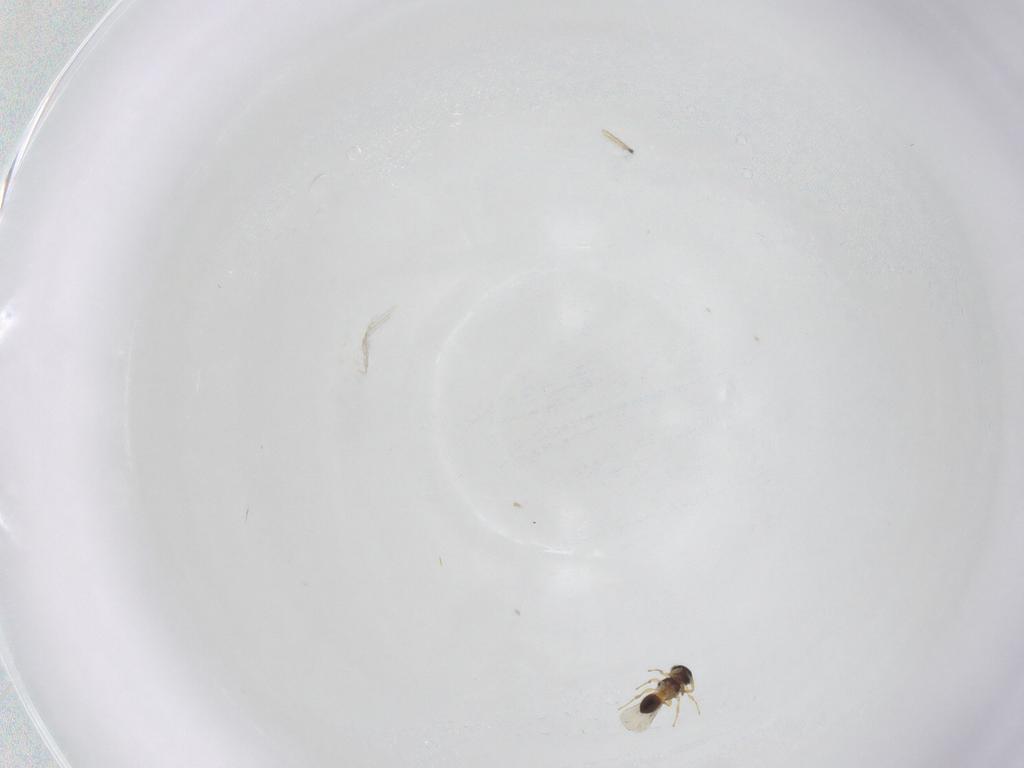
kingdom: Animalia
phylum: Arthropoda
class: Insecta
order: Hymenoptera
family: Platygastridae
